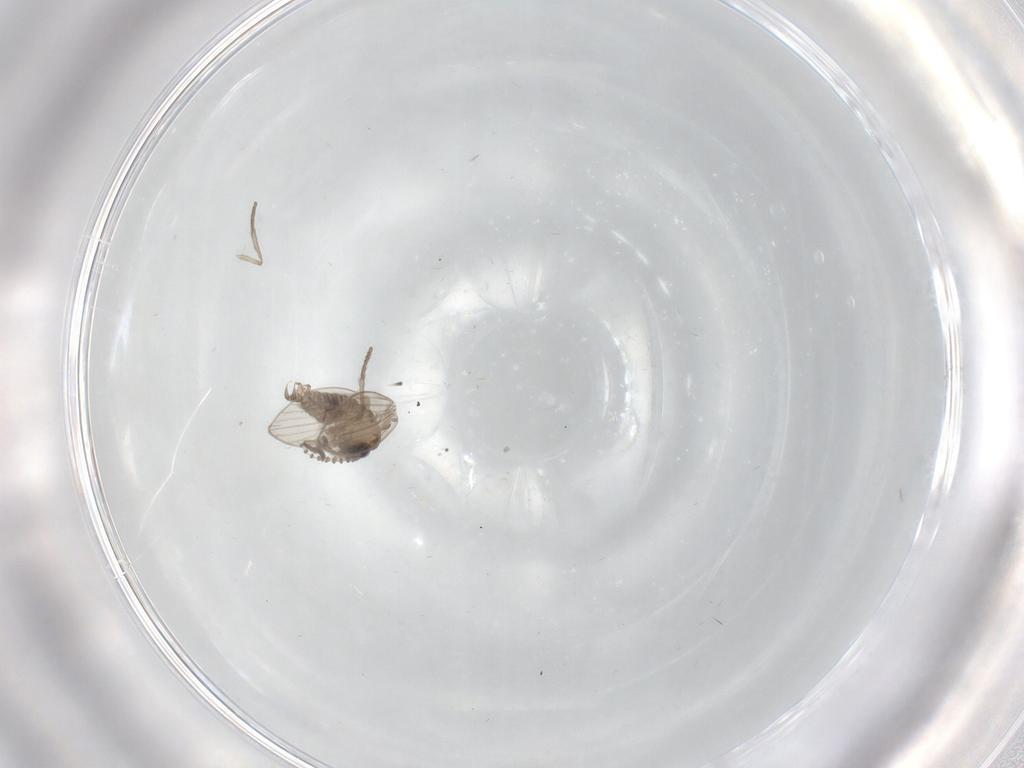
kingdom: Animalia
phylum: Arthropoda
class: Insecta
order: Diptera
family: Psychodidae
